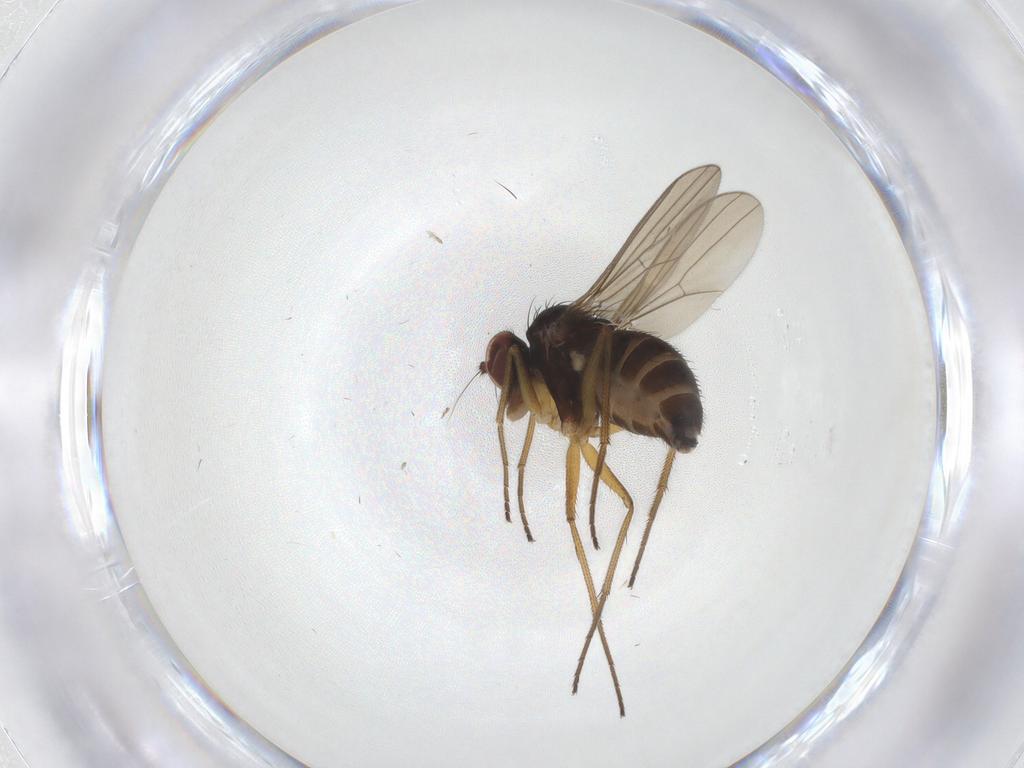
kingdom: Animalia
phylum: Arthropoda
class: Insecta
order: Diptera
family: Dolichopodidae
